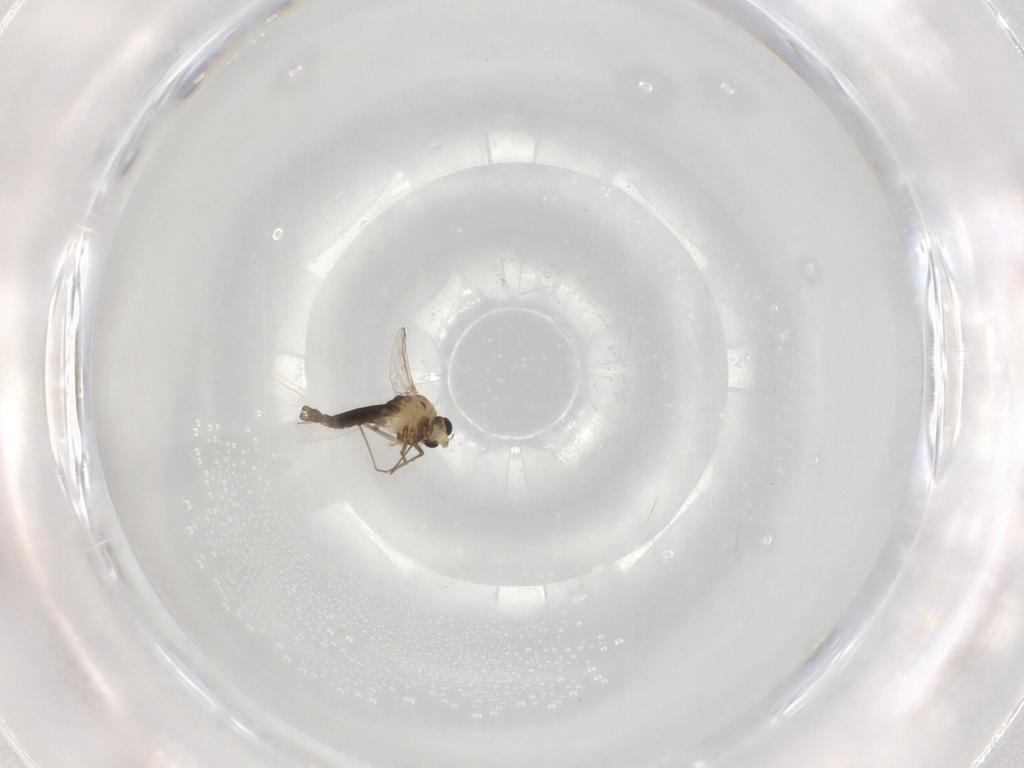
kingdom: Animalia
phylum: Arthropoda
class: Insecta
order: Diptera
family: Chironomidae
